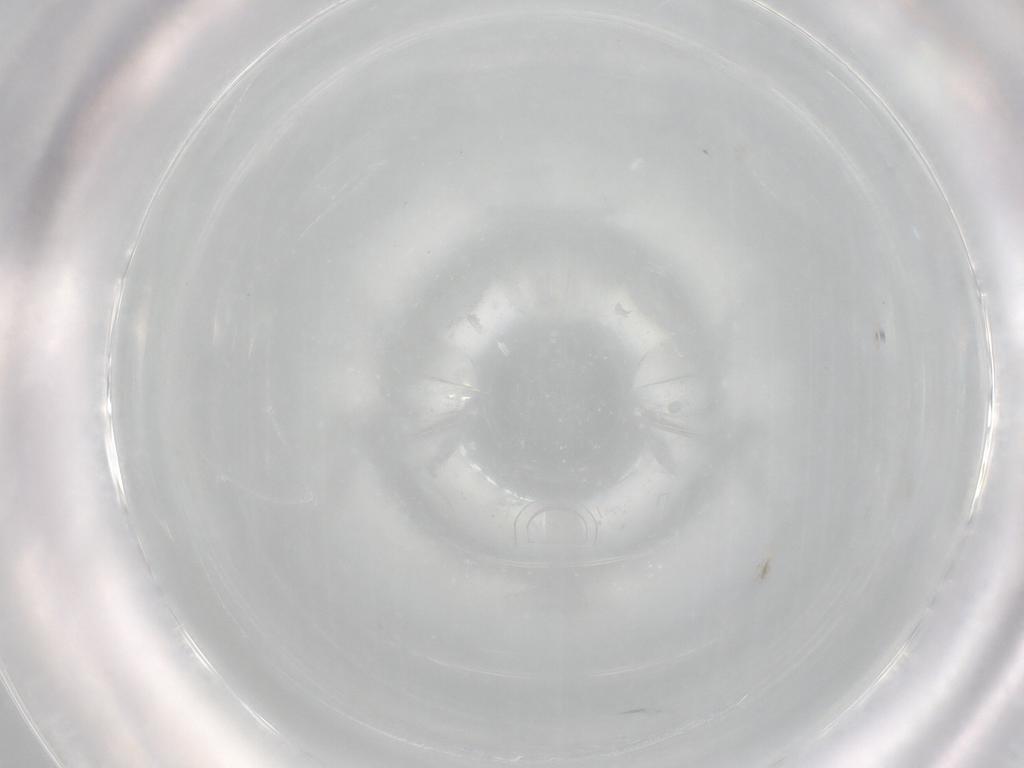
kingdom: Animalia
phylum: Arthropoda
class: Insecta
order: Hemiptera
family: Aleyrodidae
